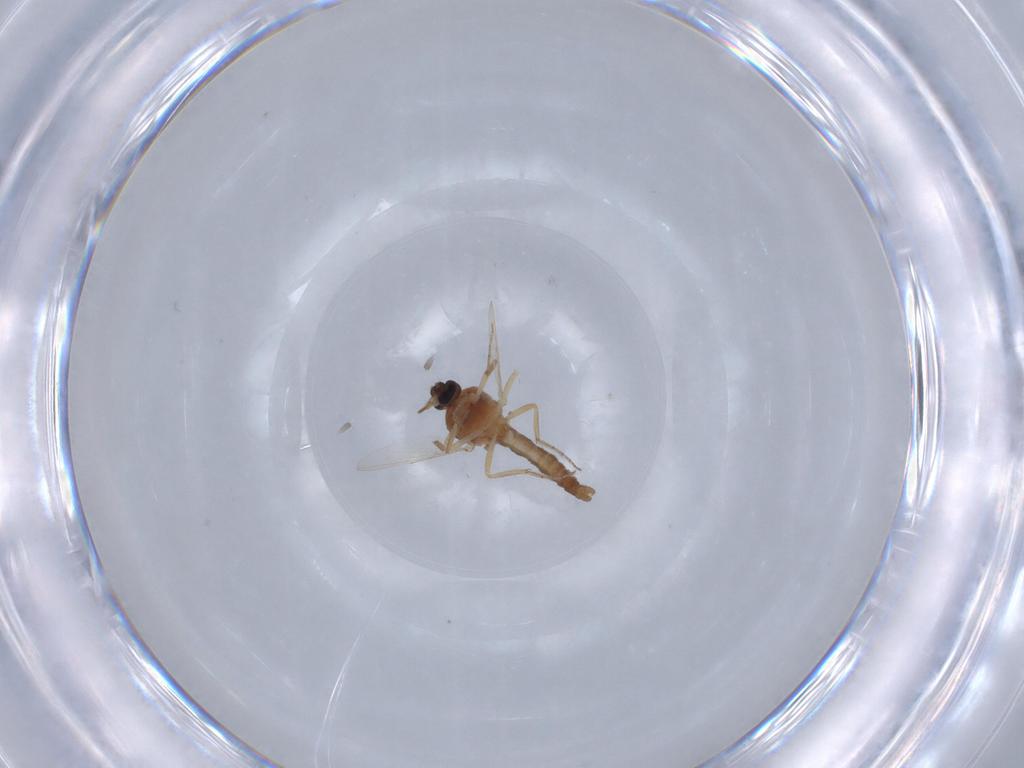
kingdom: Animalia
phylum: Arthropoda
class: Insecta
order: Diptera
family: Ceratopogonidae
